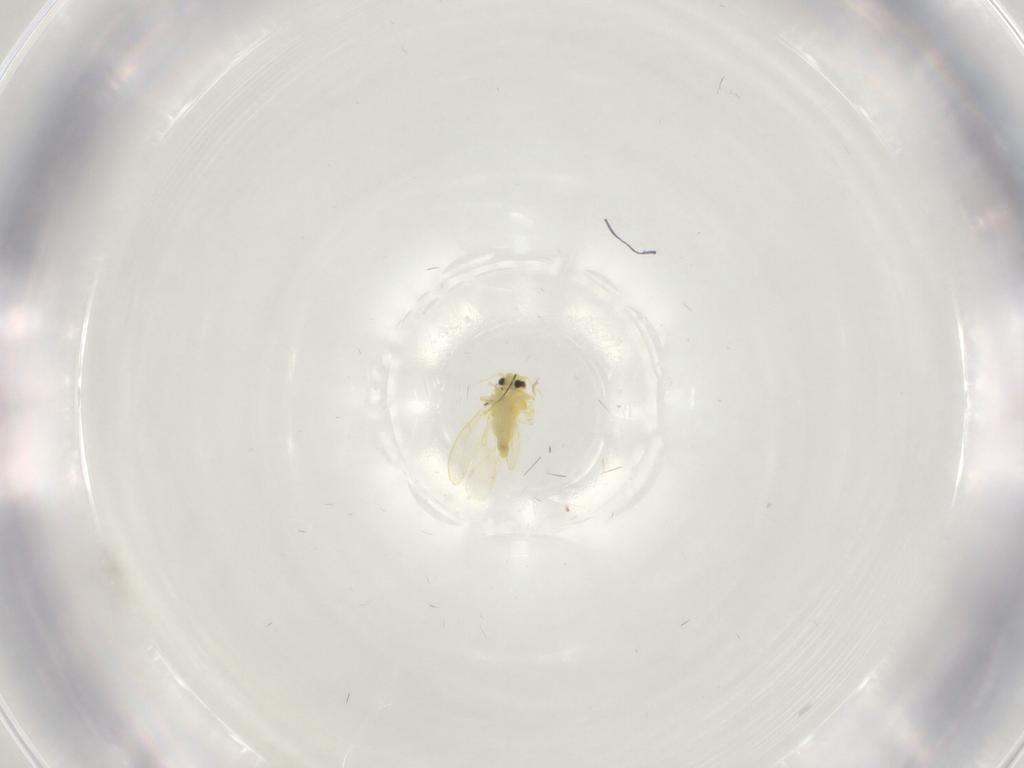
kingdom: Animalia
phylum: Arthropoda
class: Insecta
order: Hemiptera
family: Aleyrodidae
